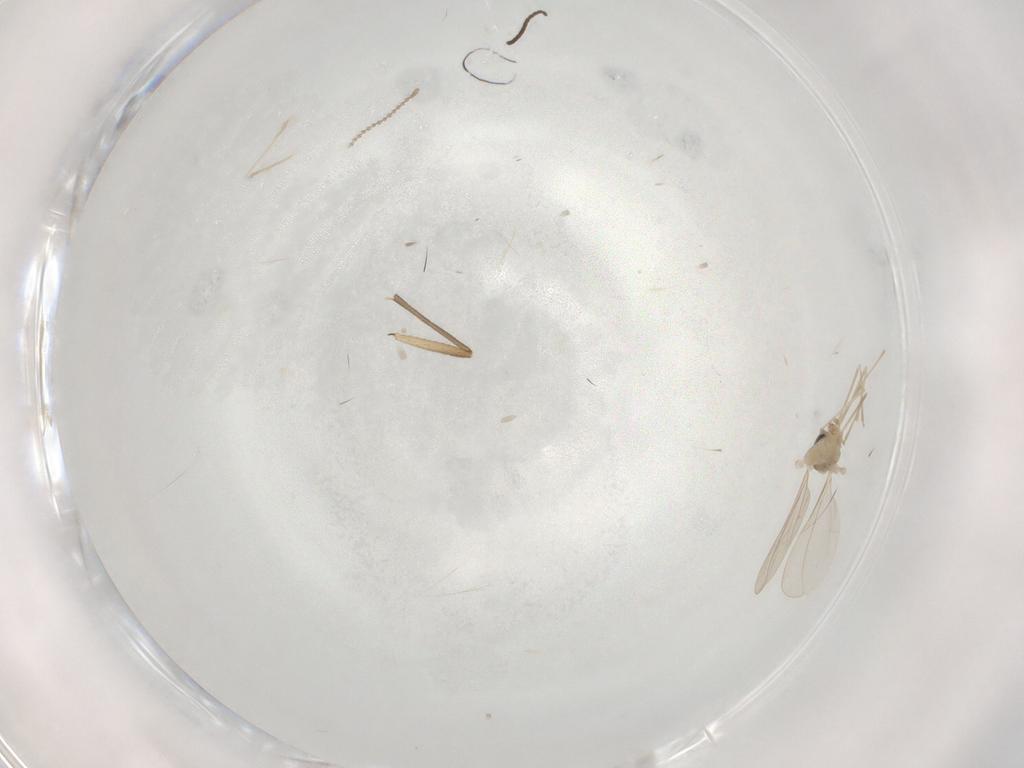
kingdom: Animalia
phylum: Arthropoda
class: Insecta
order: Diptera
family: Cecidomyiidae
